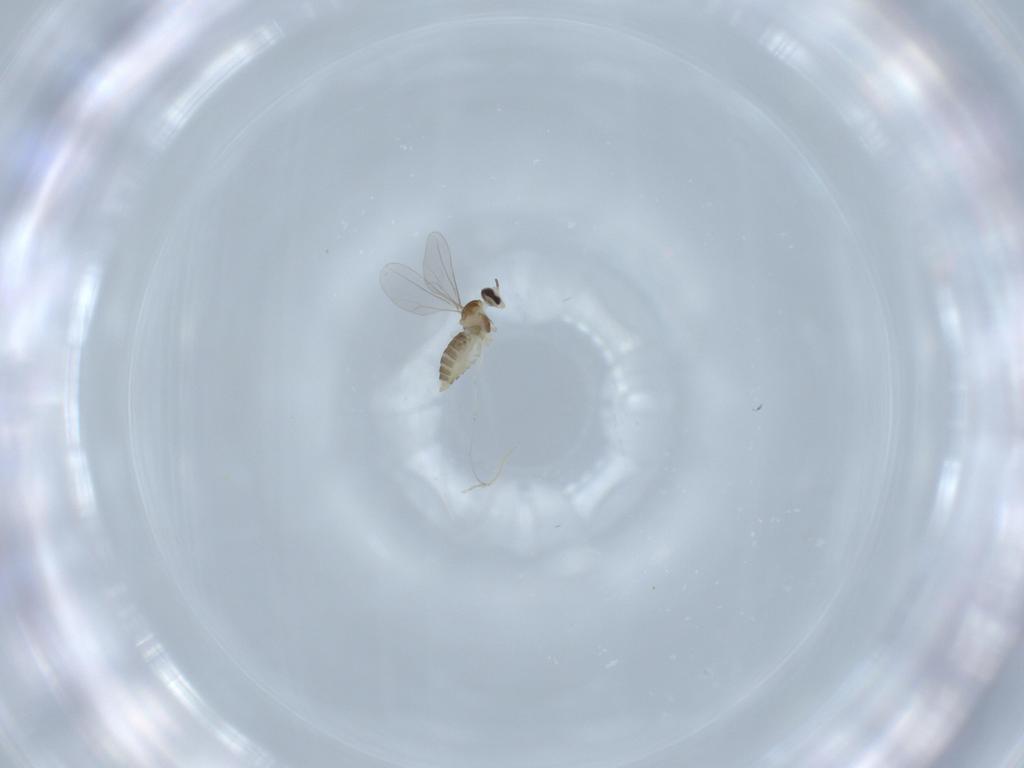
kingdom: Animalia
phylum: Arthropoda
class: Insecta
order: Diptera
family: Cecidomyiidae
